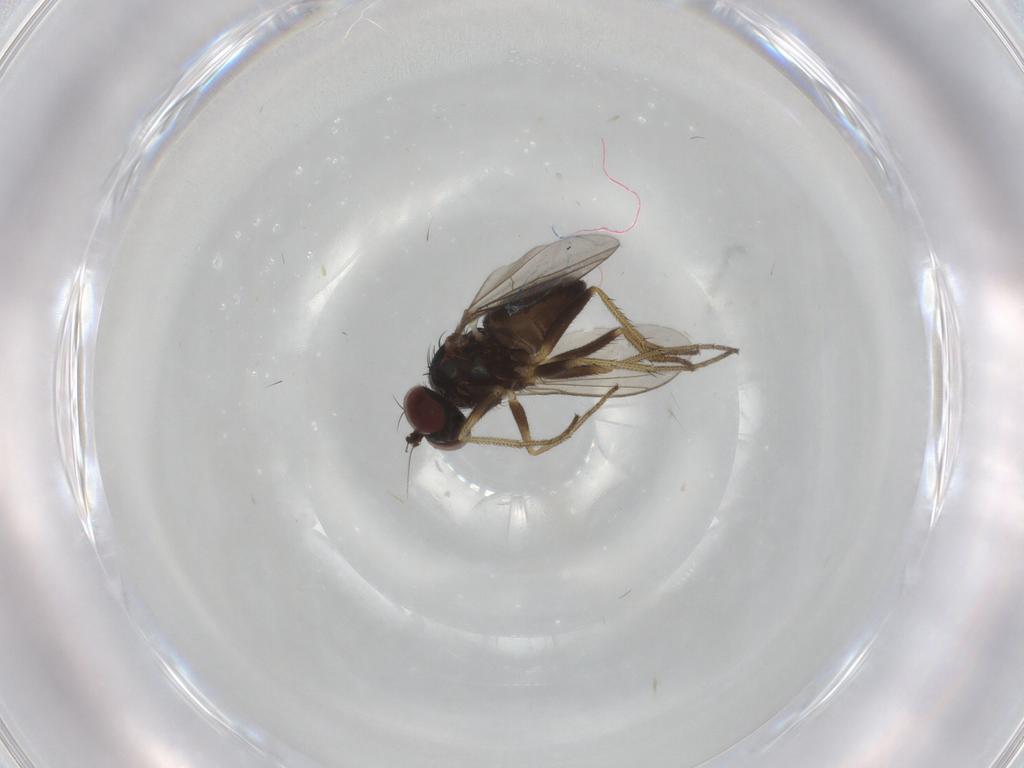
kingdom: Animalia
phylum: Arthropoda
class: Insecta
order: Diptera
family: Dolichopodidae
